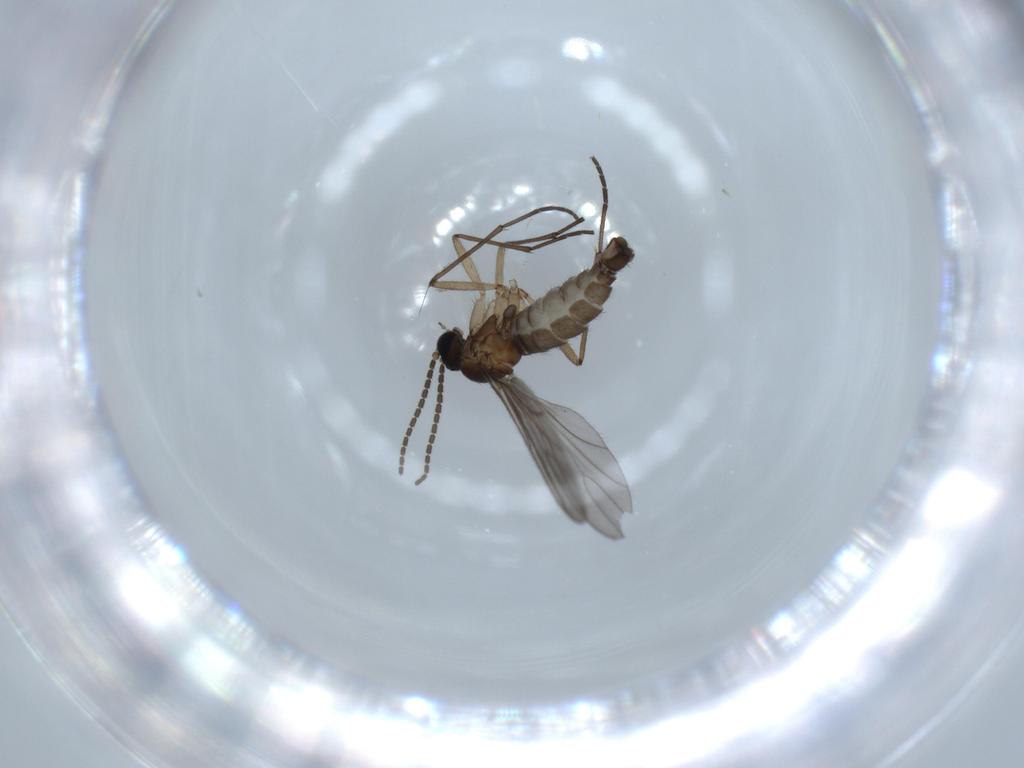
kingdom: Animalia
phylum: Arthropoda
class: Insecta
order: Diptera
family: Sciaridae
